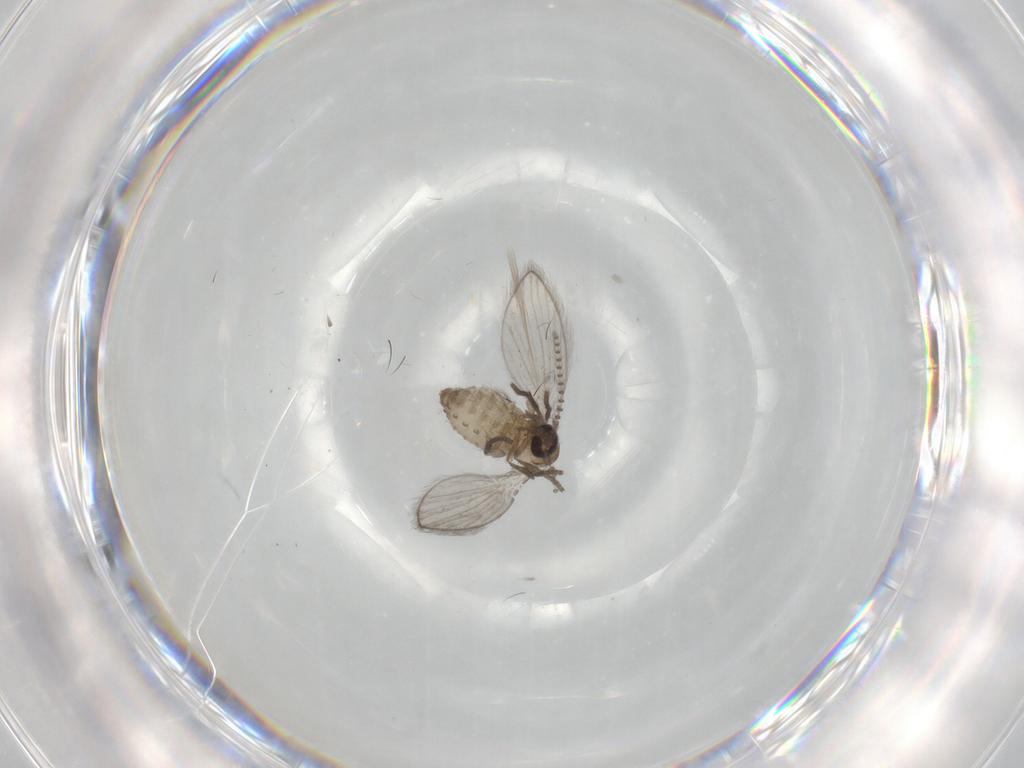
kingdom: Animalia
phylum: Arthropoda
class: Insecta
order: Diptera
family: Psychodidae
